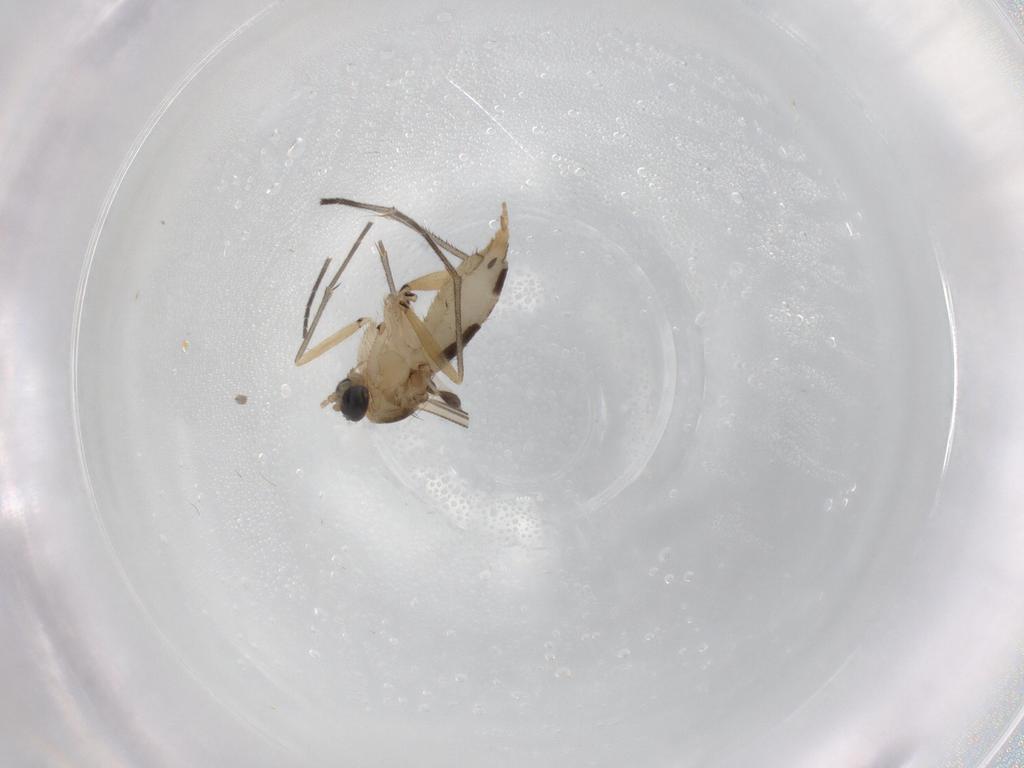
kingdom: Animalia
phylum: Arthropoda
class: Insecta
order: Diptera
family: Sciaridae
